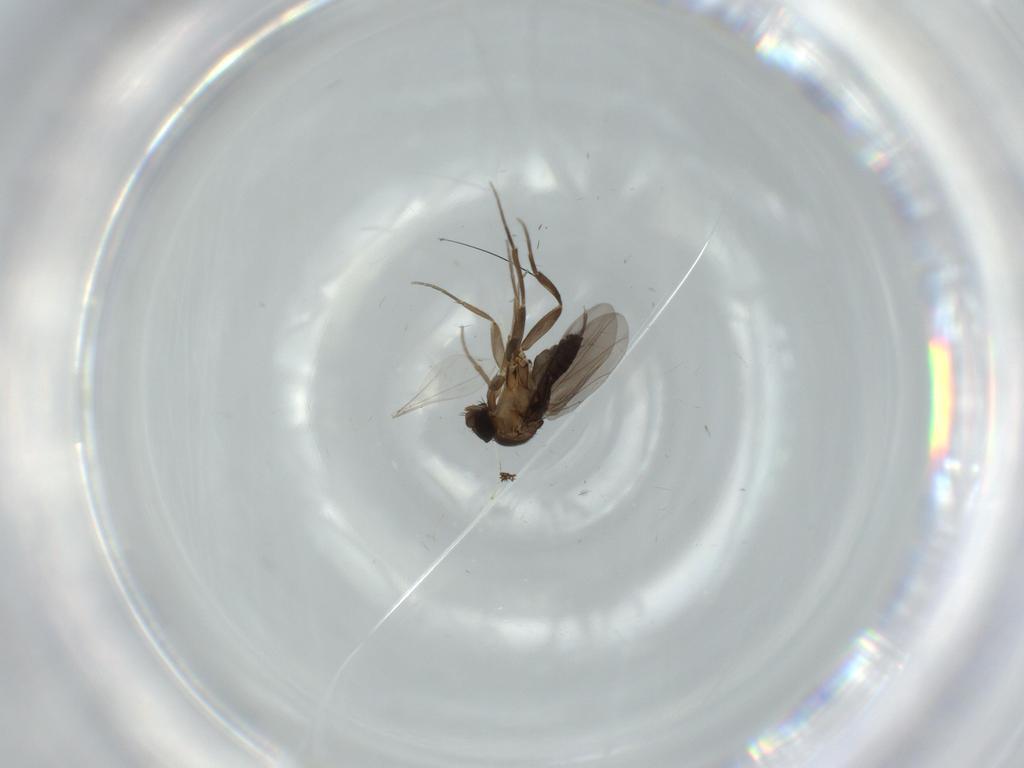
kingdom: Animalia
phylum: Arthropoda
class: Insecta
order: Diptera
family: Phoridae
